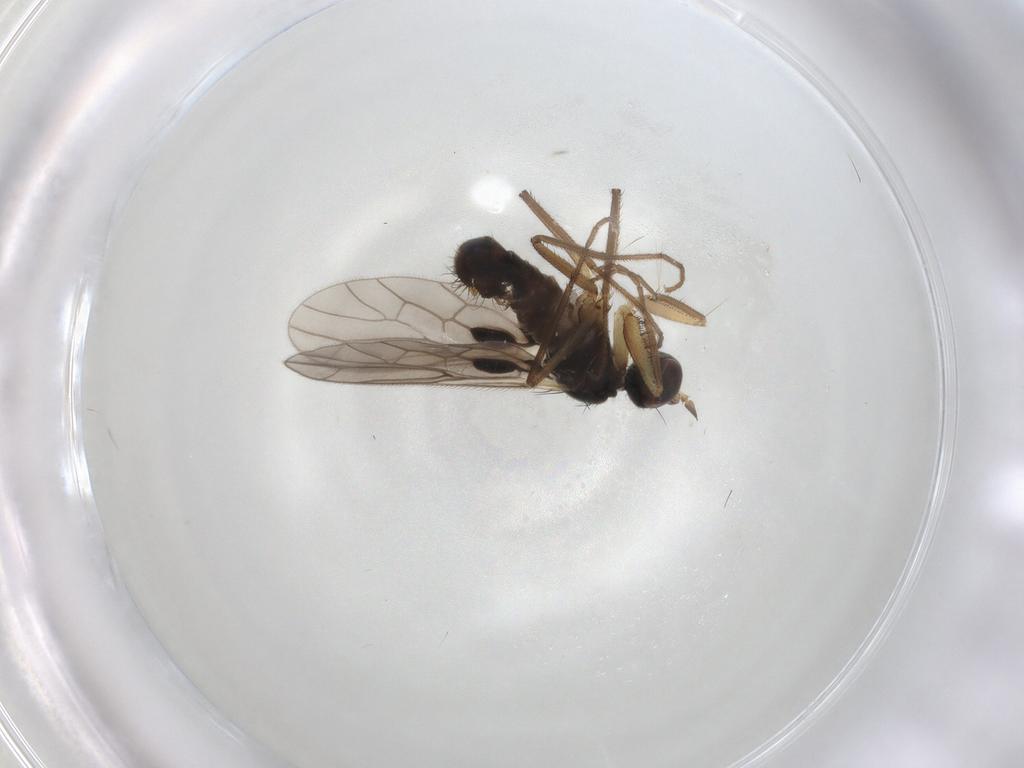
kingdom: Animalia
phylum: Arthropoda
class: Insecta
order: Diptera
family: Empididae
